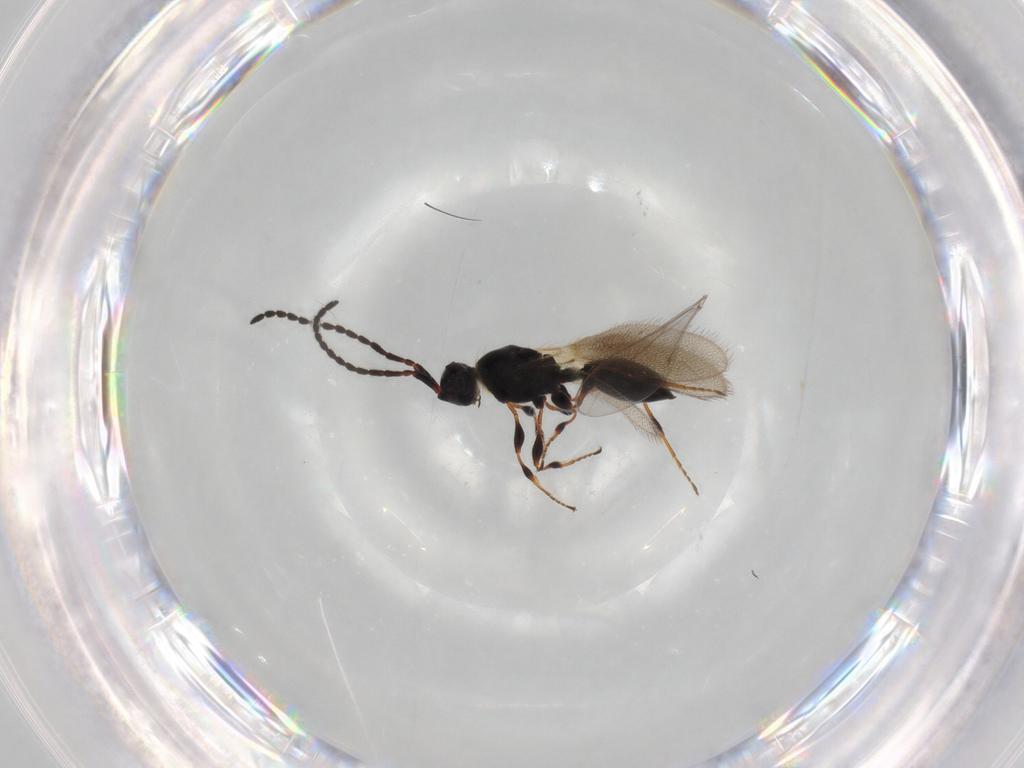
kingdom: Animalia
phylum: Arthropoda
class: Insecta
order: Hymenoptera
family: Diapriidae
